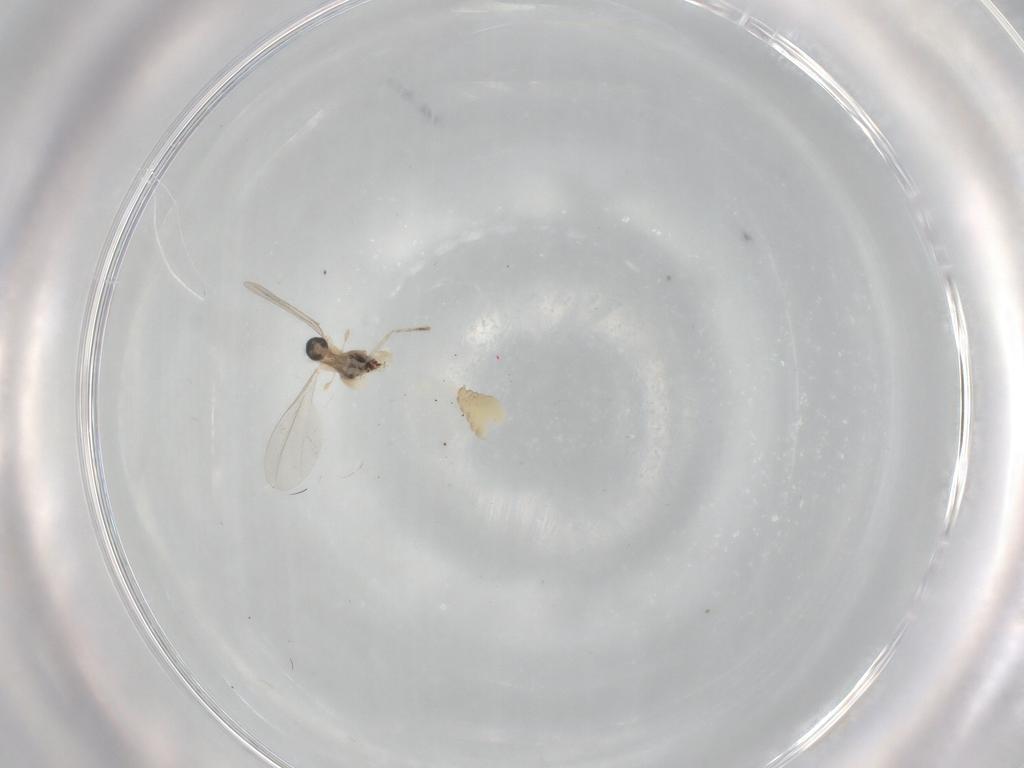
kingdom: Animalia
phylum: Arthropoda
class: Insecta
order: Diptera
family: Cecidomyiidae
